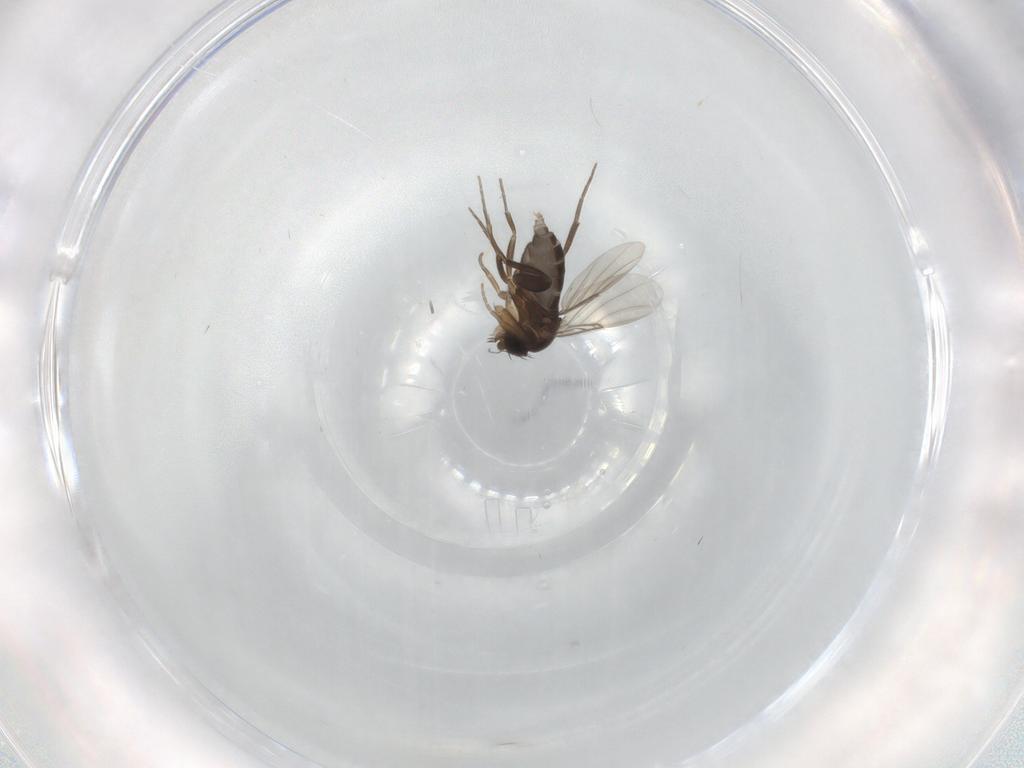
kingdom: Animalia
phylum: Arthropoda
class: Insecta
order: Diptera
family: Phoridae
